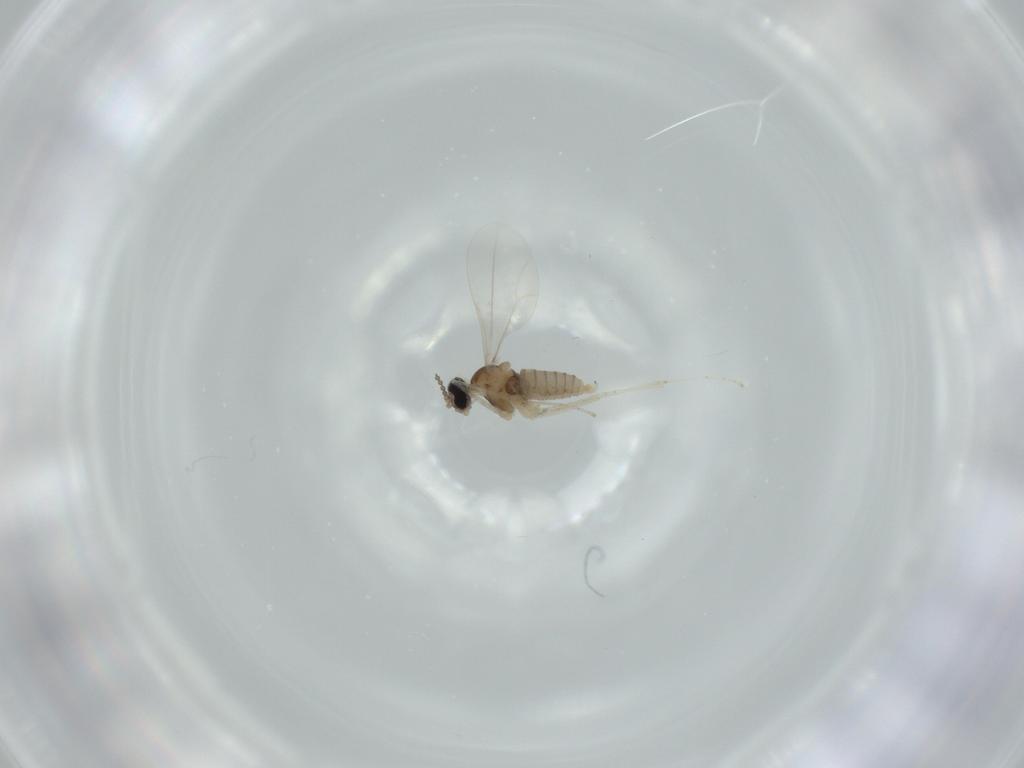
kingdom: Animalia
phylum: Arthropoda
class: Insecta
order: Diptera
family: Cecidomyiidae
